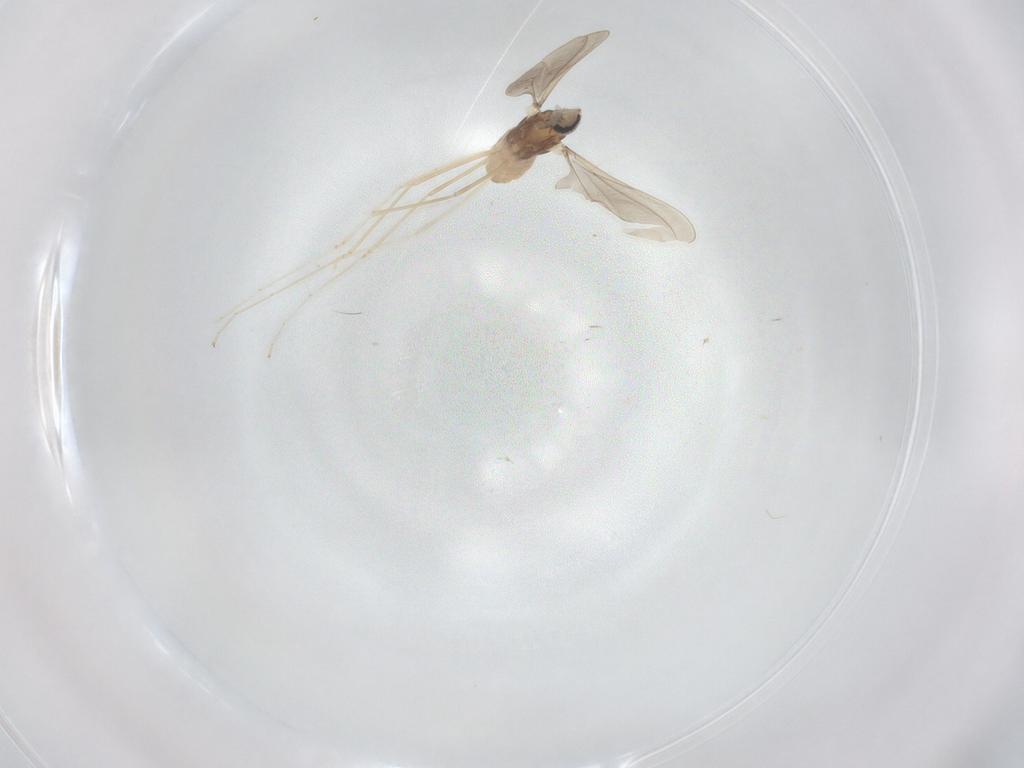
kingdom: Animalia
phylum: Arthropoda
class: Insecta
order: Diptera
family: Cecidomyiidae
